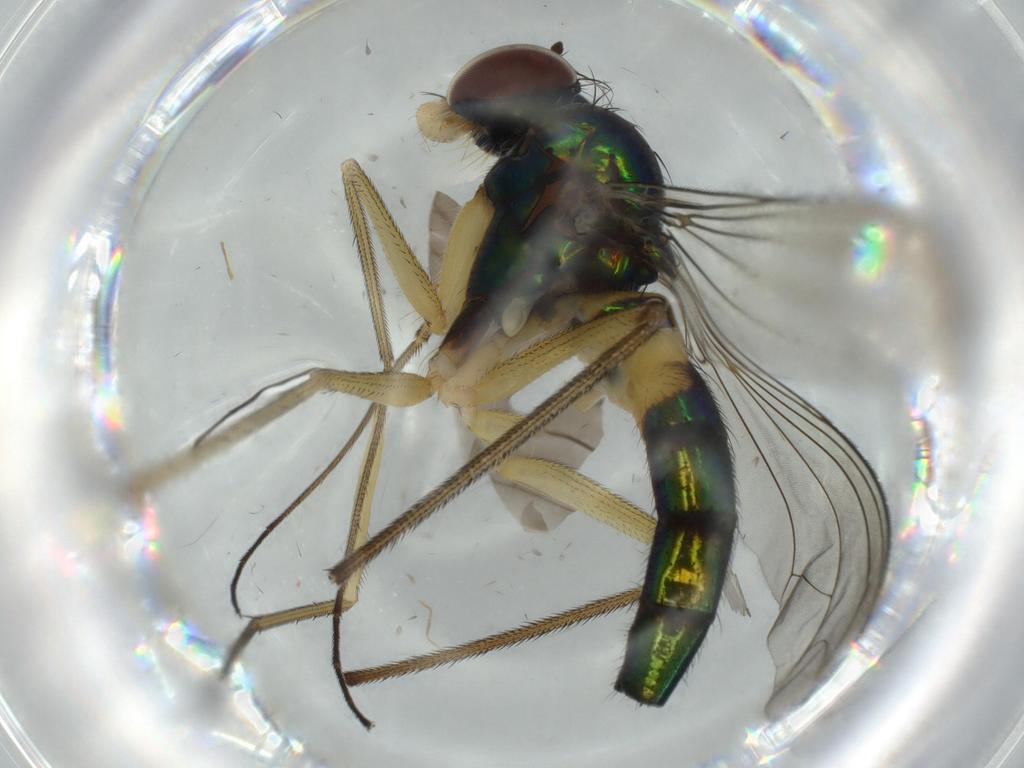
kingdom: Animalia
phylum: Arthropoda
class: Insecta
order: Diptera
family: Dolichopodidae
